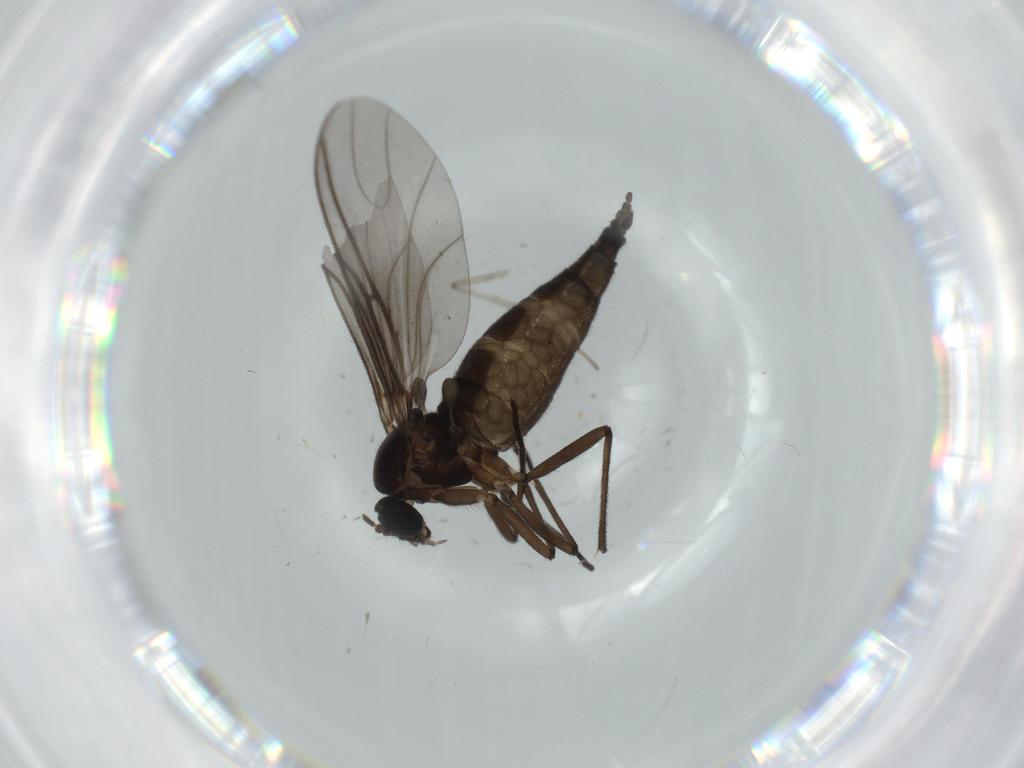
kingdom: Animalia
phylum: Arthropoda
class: Insecta
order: Diptera
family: Sciaridae
